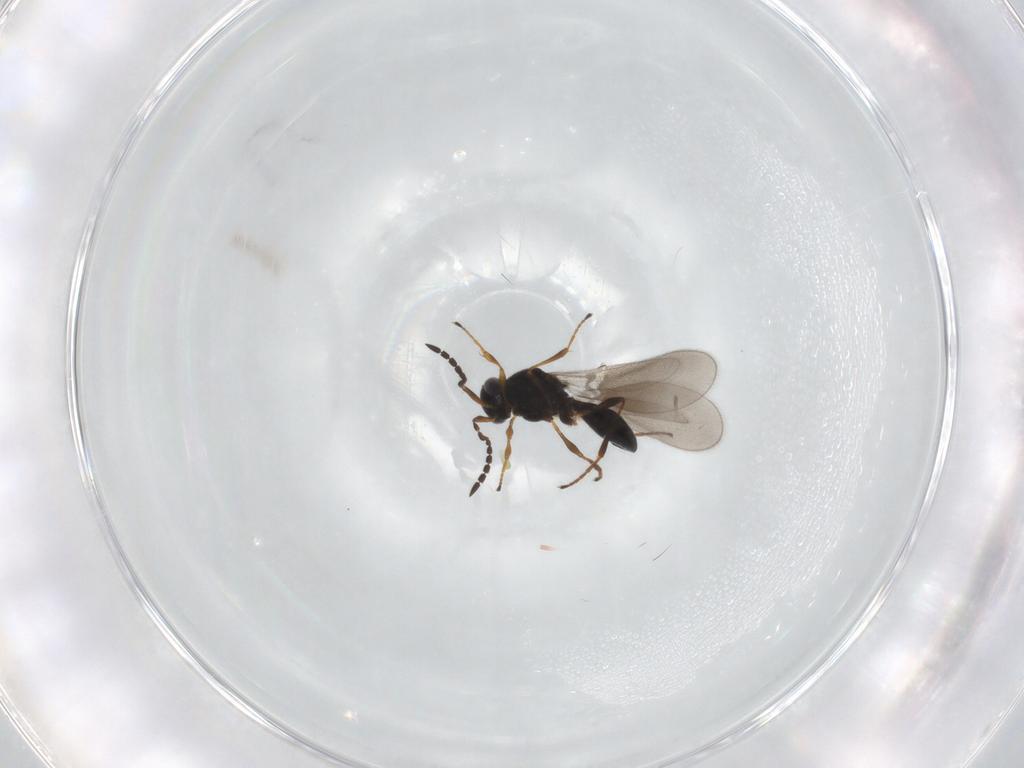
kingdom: Animalia
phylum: Arthropoda
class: Insecta
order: Hymenoptera
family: Platygastridae
